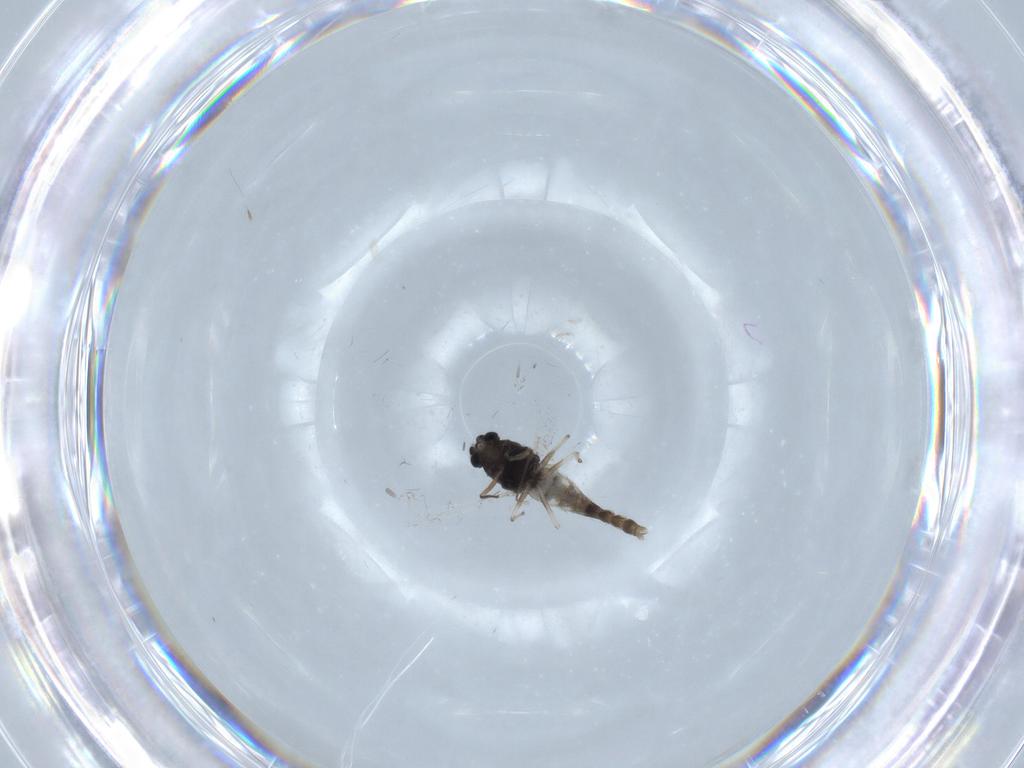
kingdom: Animalia
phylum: Arthropoda
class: Insecta
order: Diptera
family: Chironomidae
